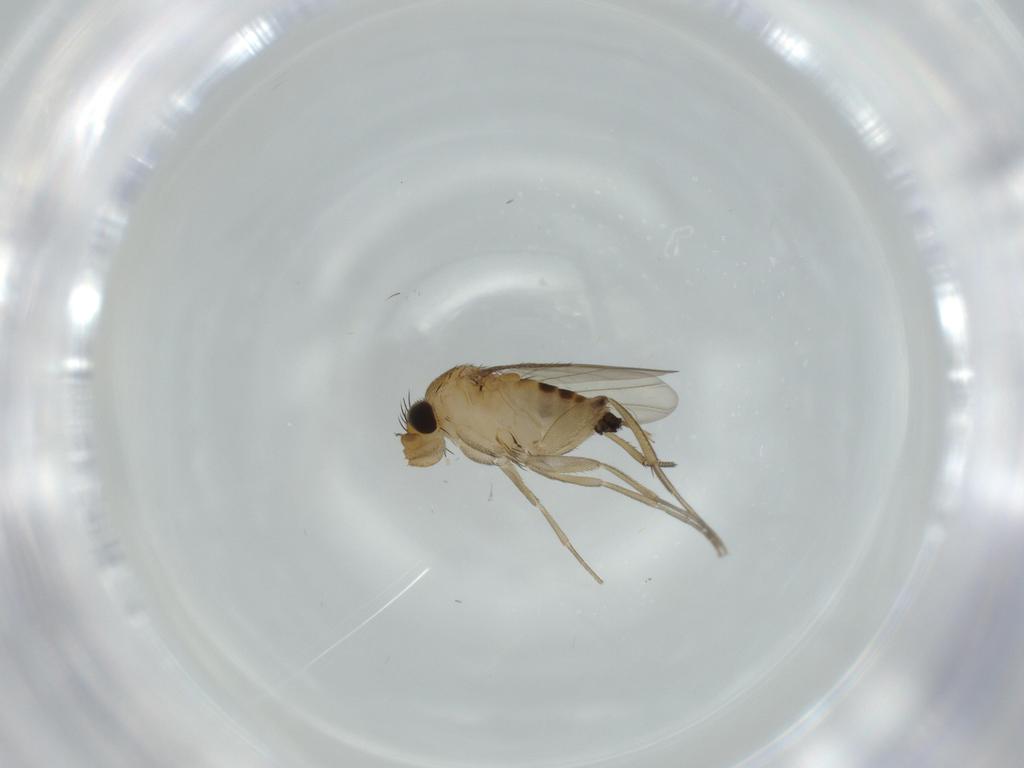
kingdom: Animalia
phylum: Arthropoda
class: Insecta
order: Diptera
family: Phoridae
